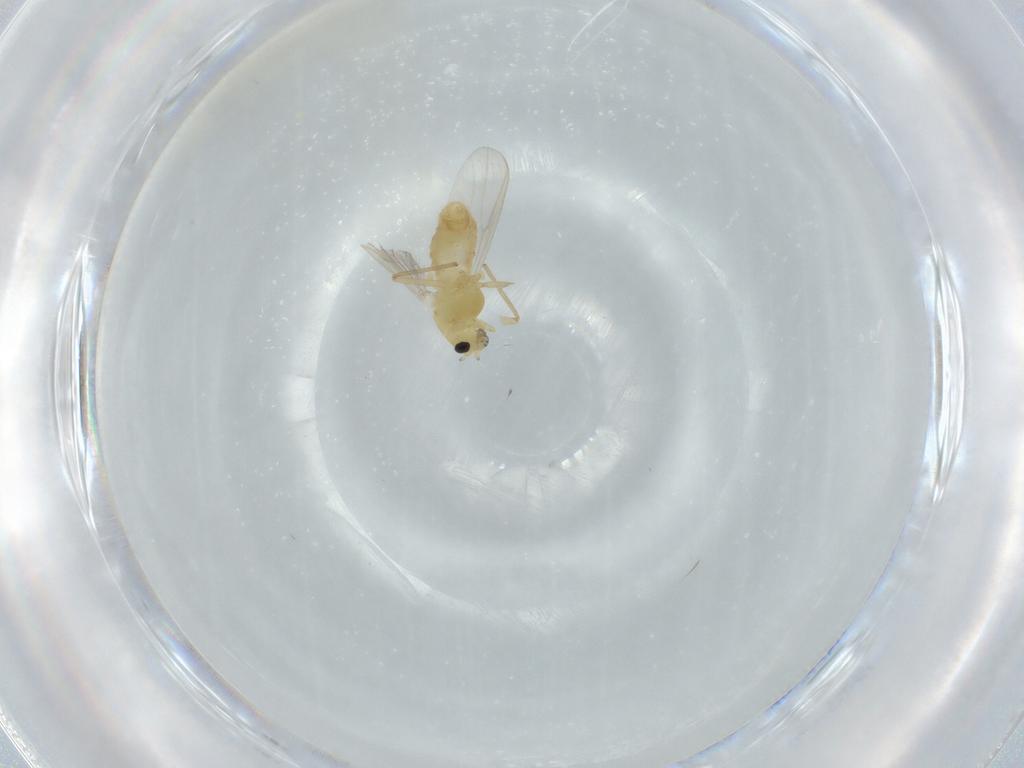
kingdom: Animalia
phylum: Arthropoda
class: Insecta
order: Diptera
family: Chironomidae
